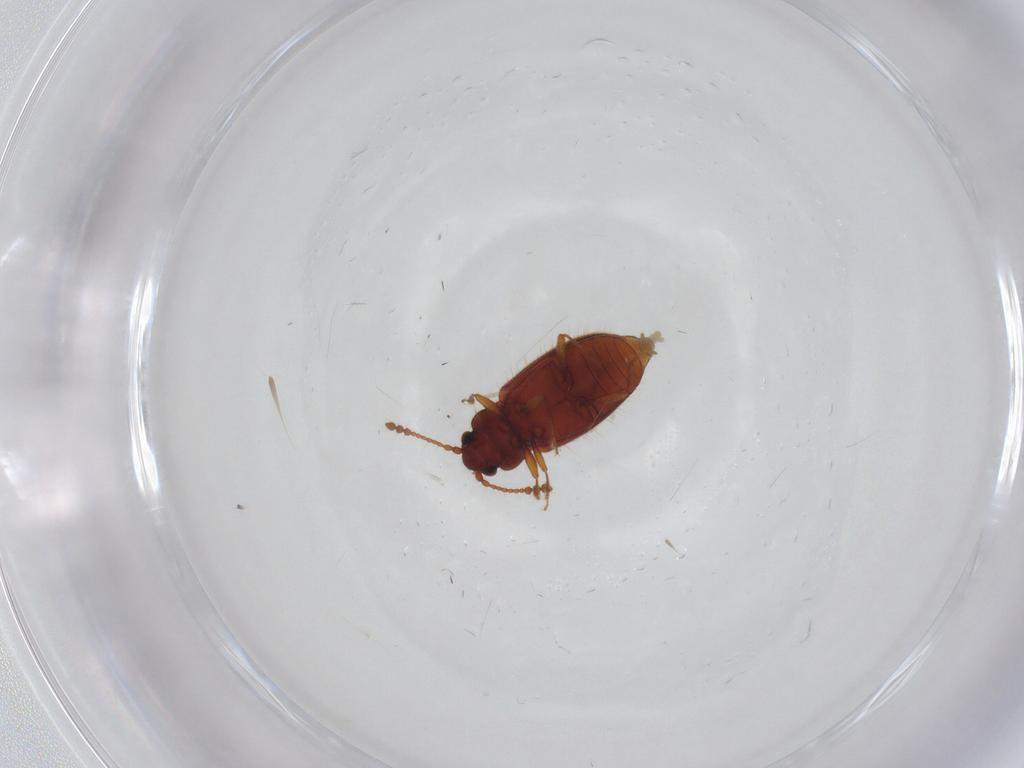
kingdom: Animalia
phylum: Arthropoda
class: Insecta
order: Coleoptera
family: Cryptophagidae
